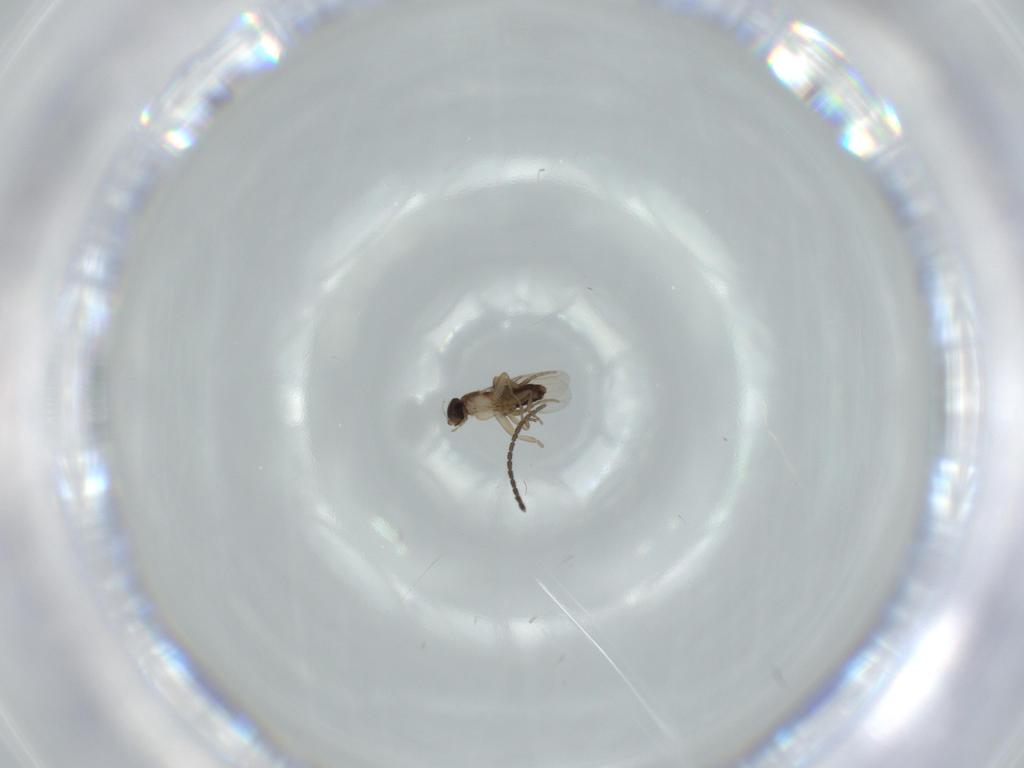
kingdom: Animalia
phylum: Arthropoda
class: Insecta
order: Diptera
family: Phoridae
